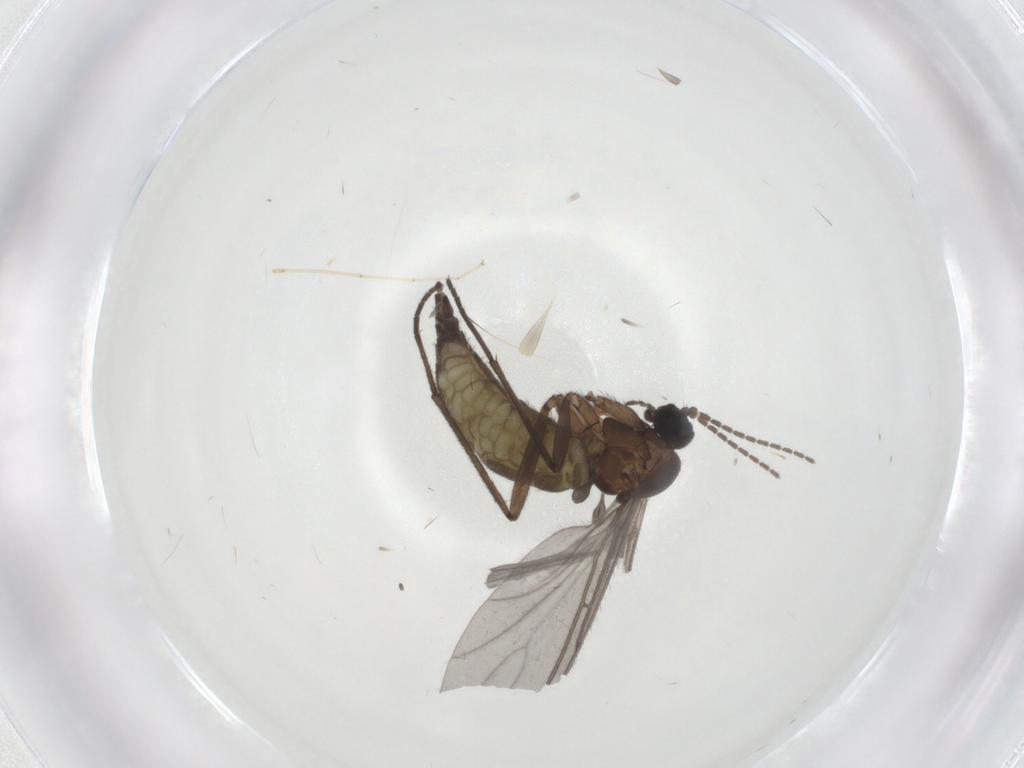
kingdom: Animalia
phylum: Arthropoda
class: Insecta
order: Diptera
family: Sciaridae
